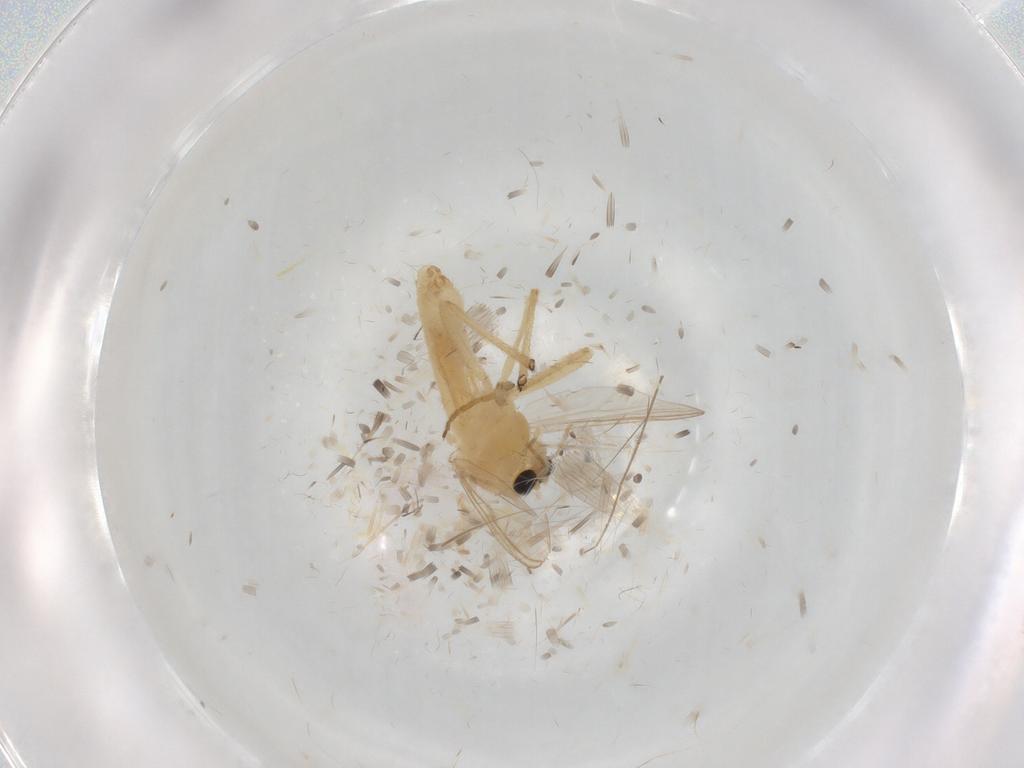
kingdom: Animalia
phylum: Arthropoda
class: Insecta
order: Diptera
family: Chironomidae
